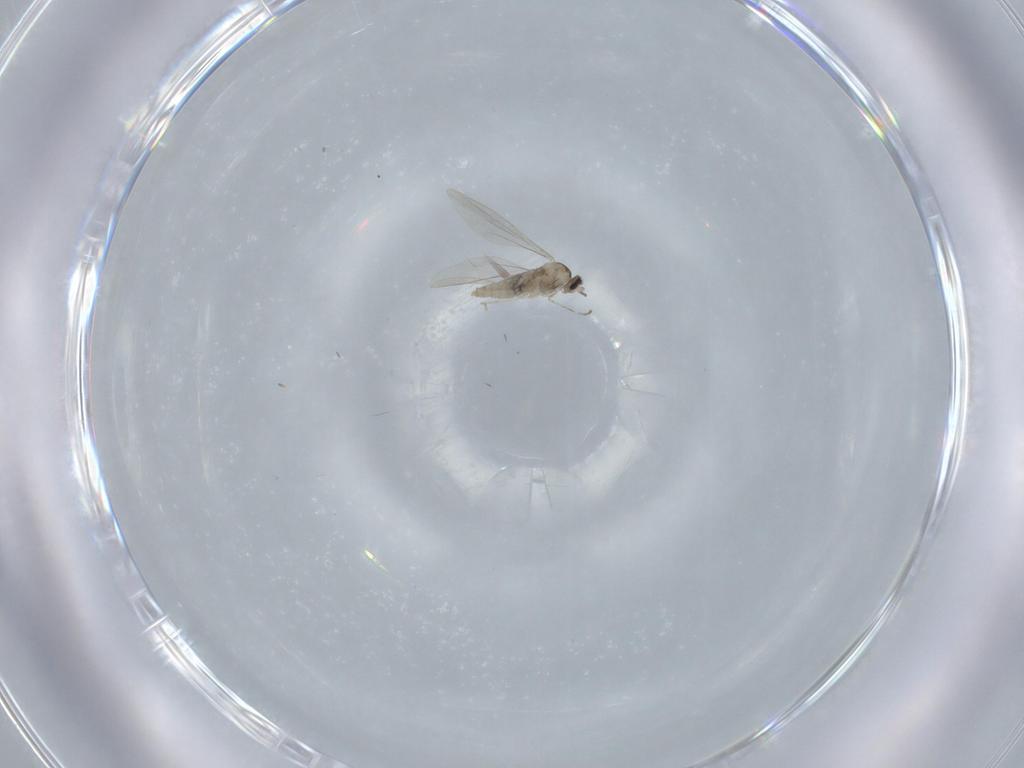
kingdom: Animalia
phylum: Arthropoda
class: Insecta
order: Diptera
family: Cecidomyiidae
